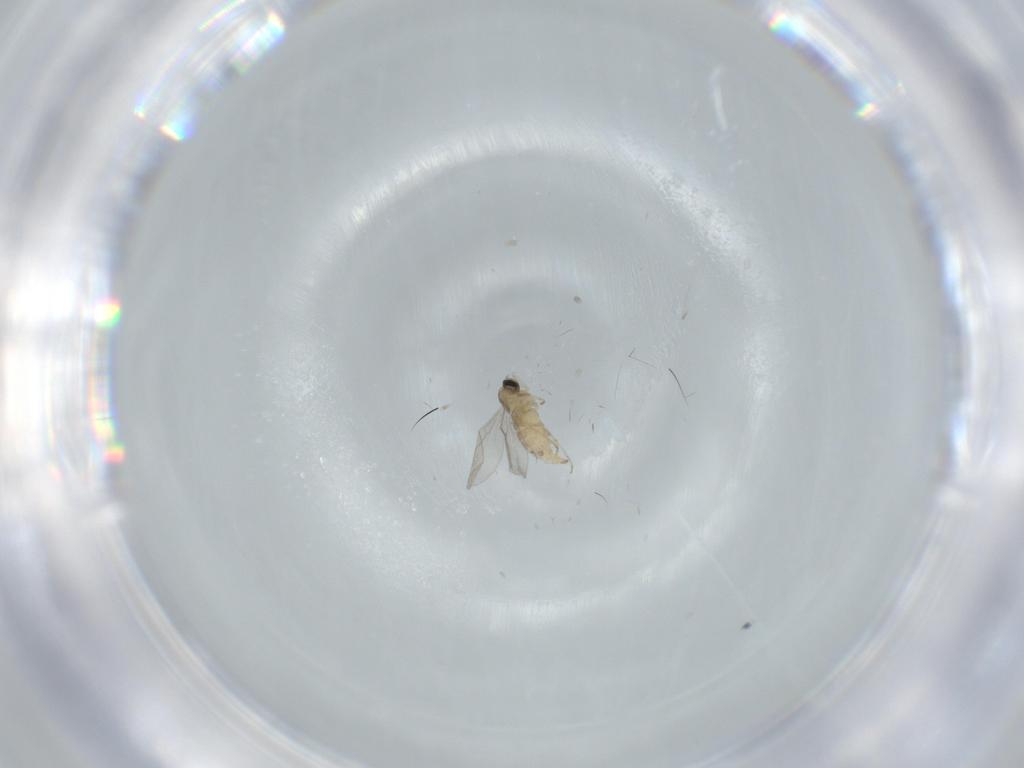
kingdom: Animalia
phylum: Arthropoda
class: Insecta
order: Diptera
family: Cecidomyiidae
